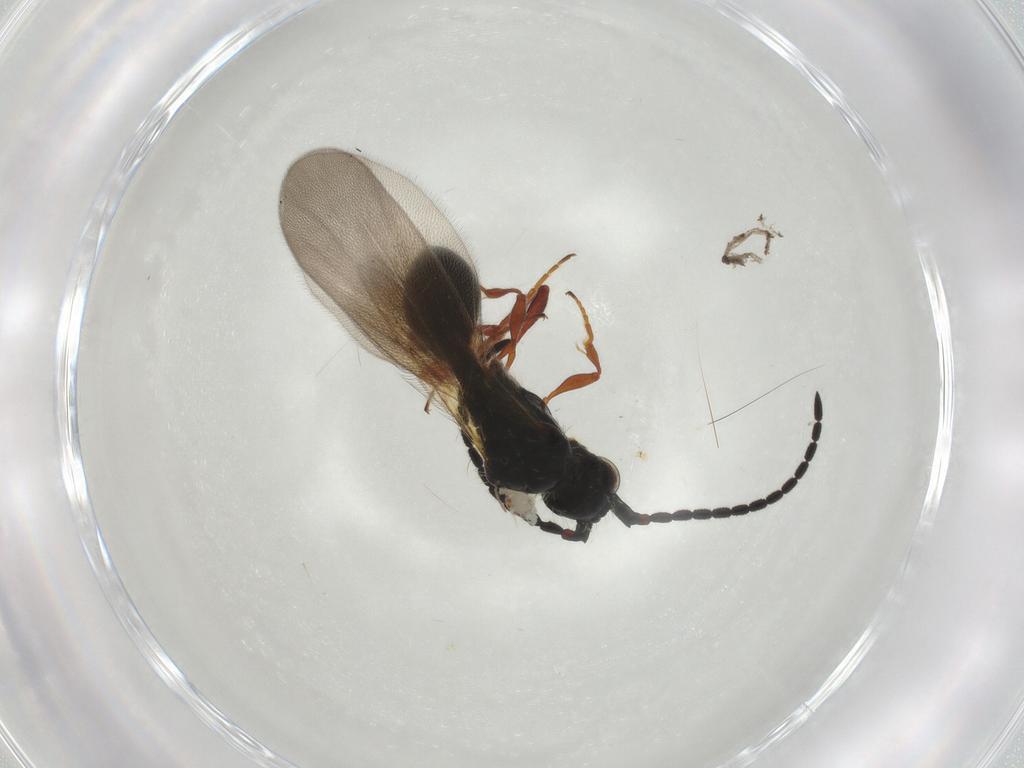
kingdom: Animalia
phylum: Arthropoda
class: Insecta
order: Hymenoptera
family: Diapriidae
